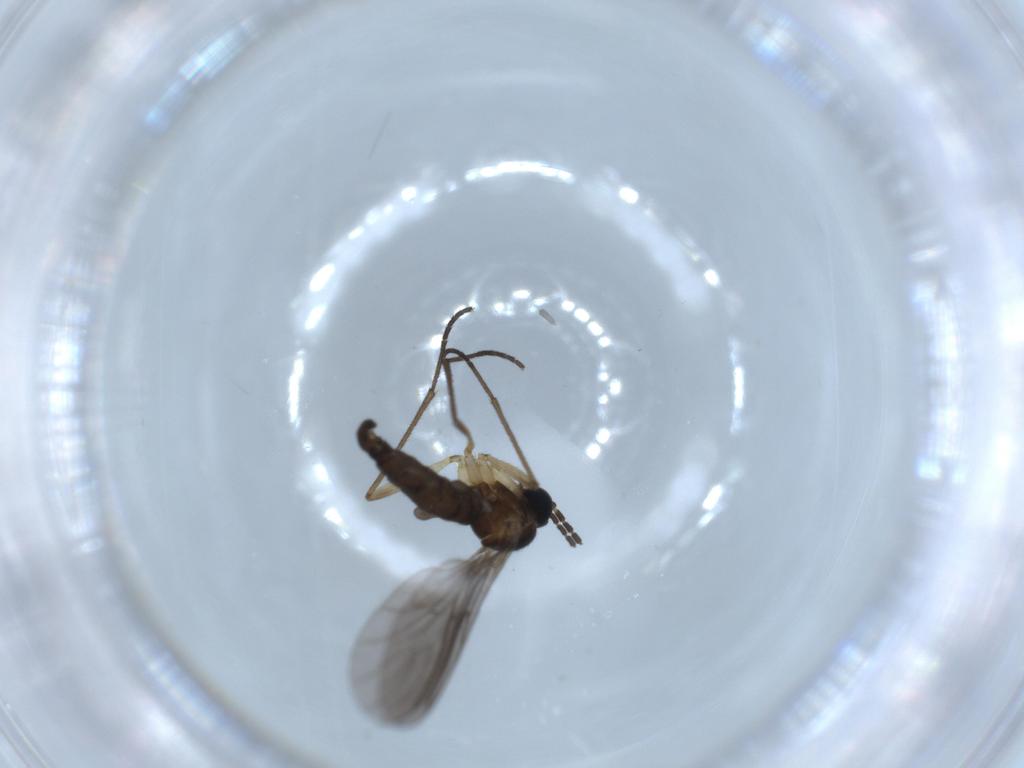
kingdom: Animalia
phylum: Arthropoda
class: Insecta
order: Diptera
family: Sciaridae
